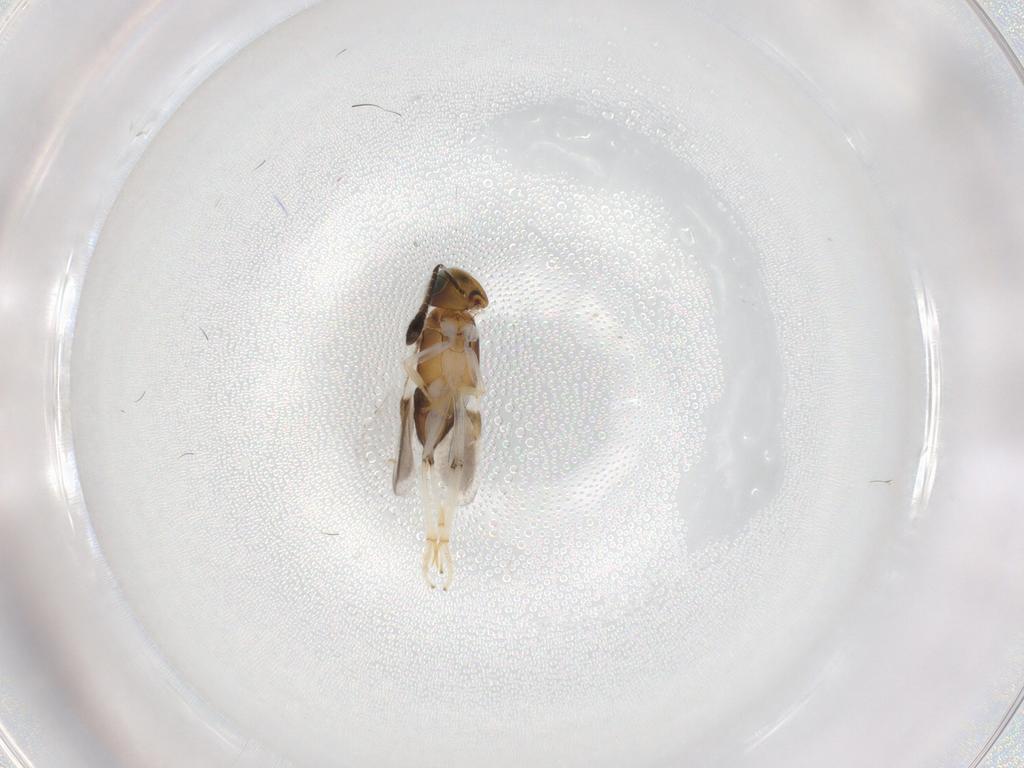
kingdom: Animalia
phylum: Arthropoda
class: Insecta
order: Hymenoptera
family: Encyrtidae
